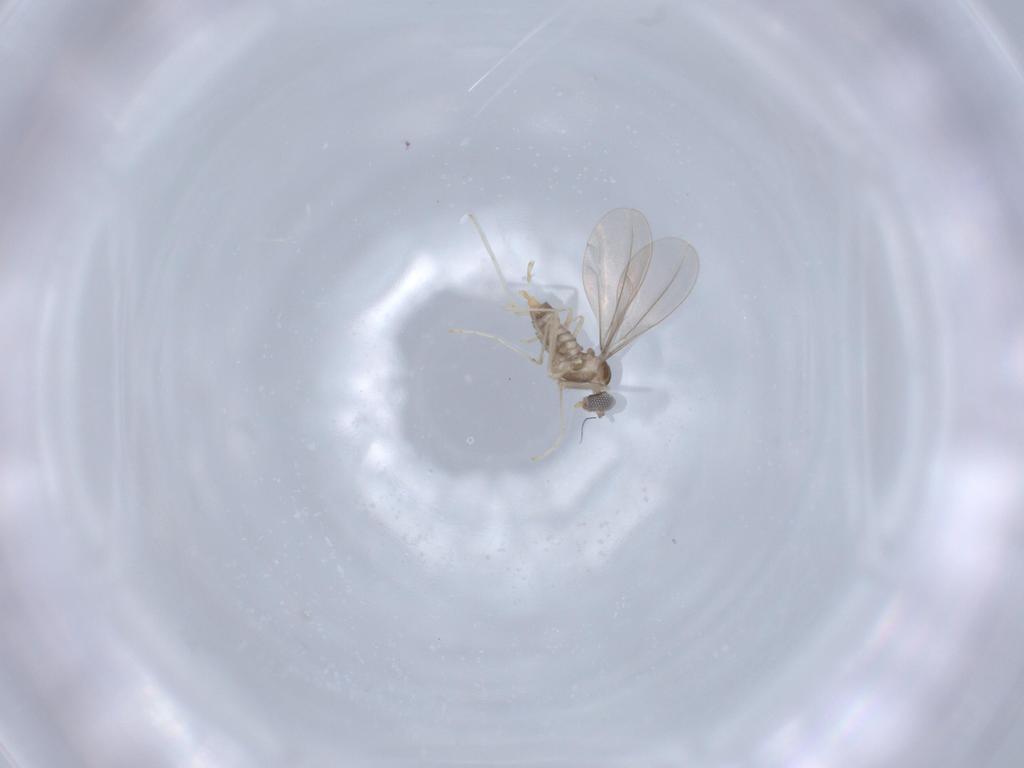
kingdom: Animalia
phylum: Arthropoda
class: Insecta
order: Diptera
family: Cecidomyiidae
